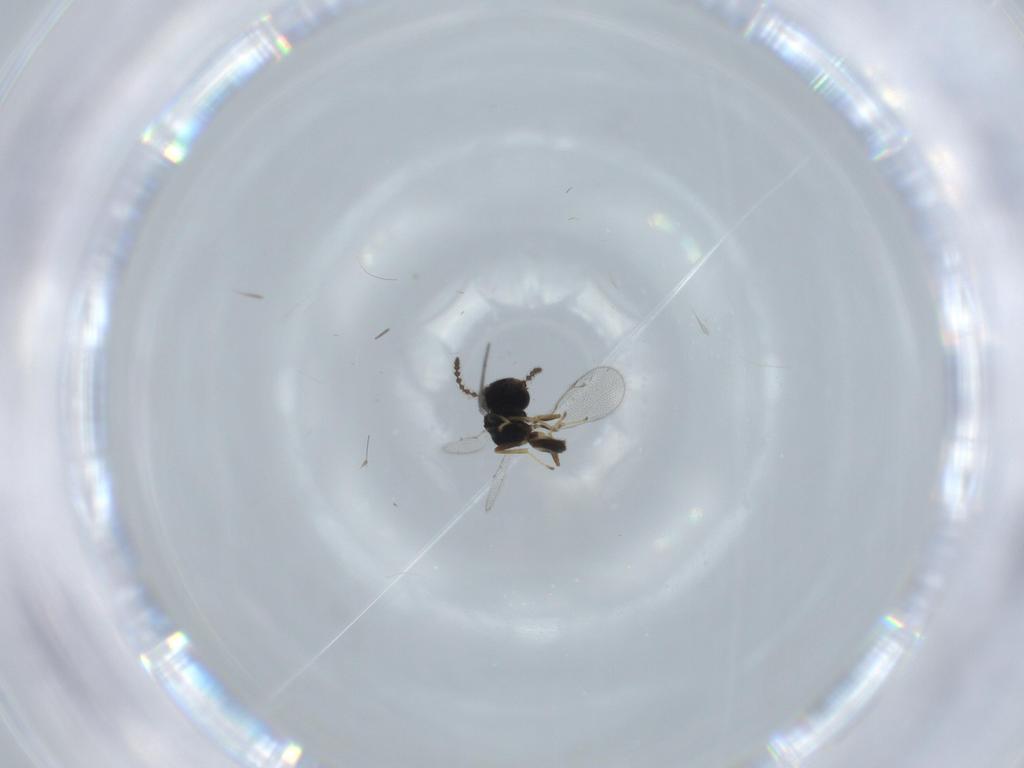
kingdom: Animalia
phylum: Arthropoda
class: Insecta
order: Hymenoptera
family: Pteromalidae
